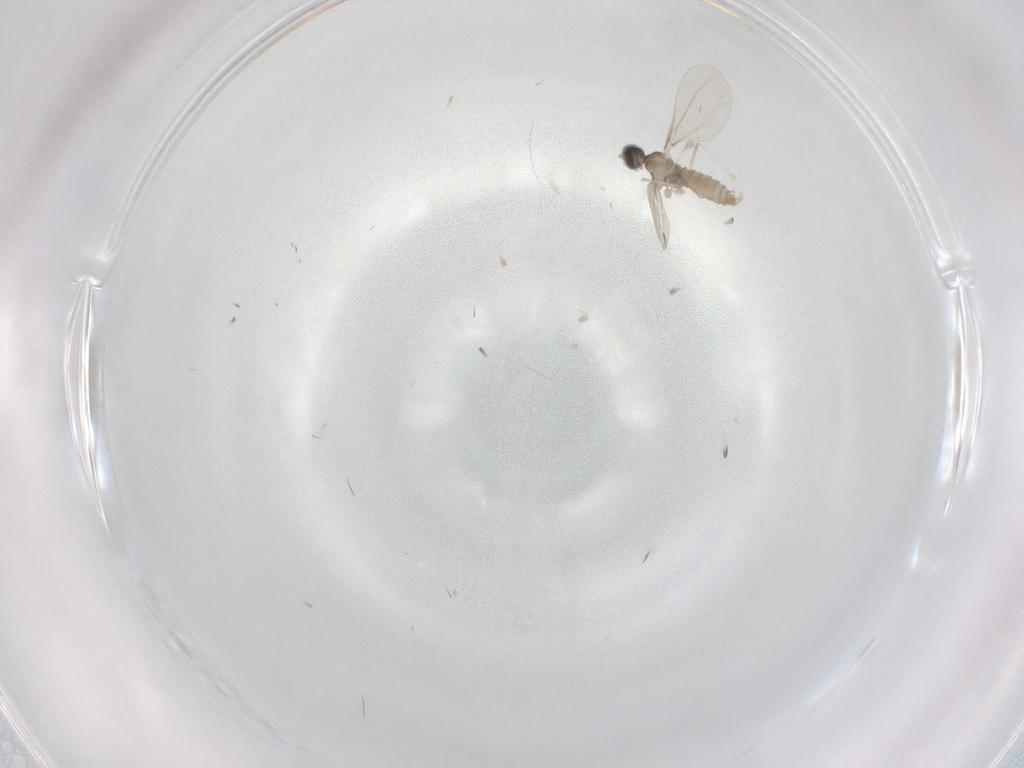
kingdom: Animalia
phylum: Arthropoda
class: Insecta
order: Diptera
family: Cecidomyiidae
